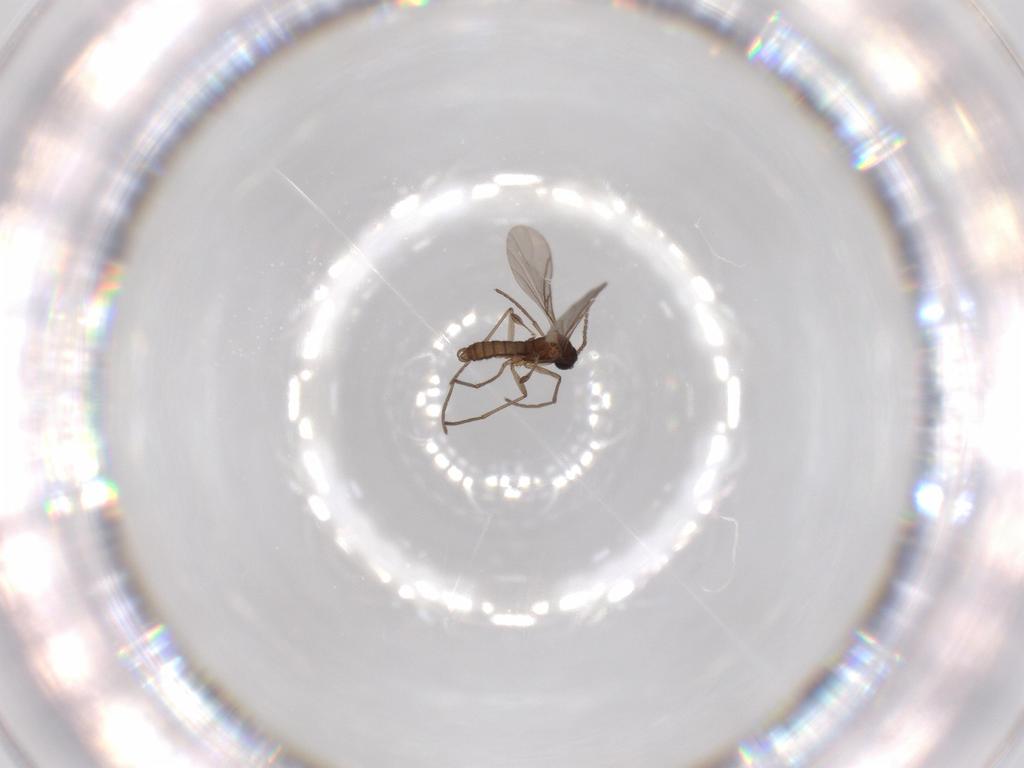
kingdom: Animalia
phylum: Arthropoda
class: Insecta
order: Diptera
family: Sciaridae
